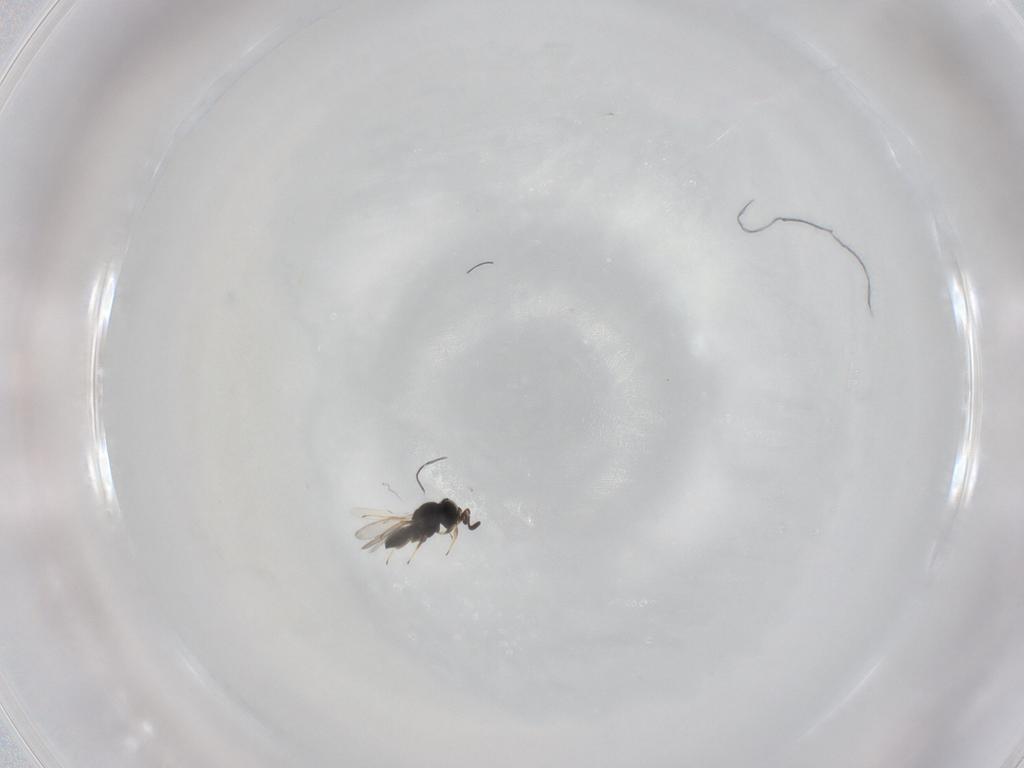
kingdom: Animalia
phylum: Arthropoda
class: Insecta
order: Hymenoptera
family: Scelionidae
